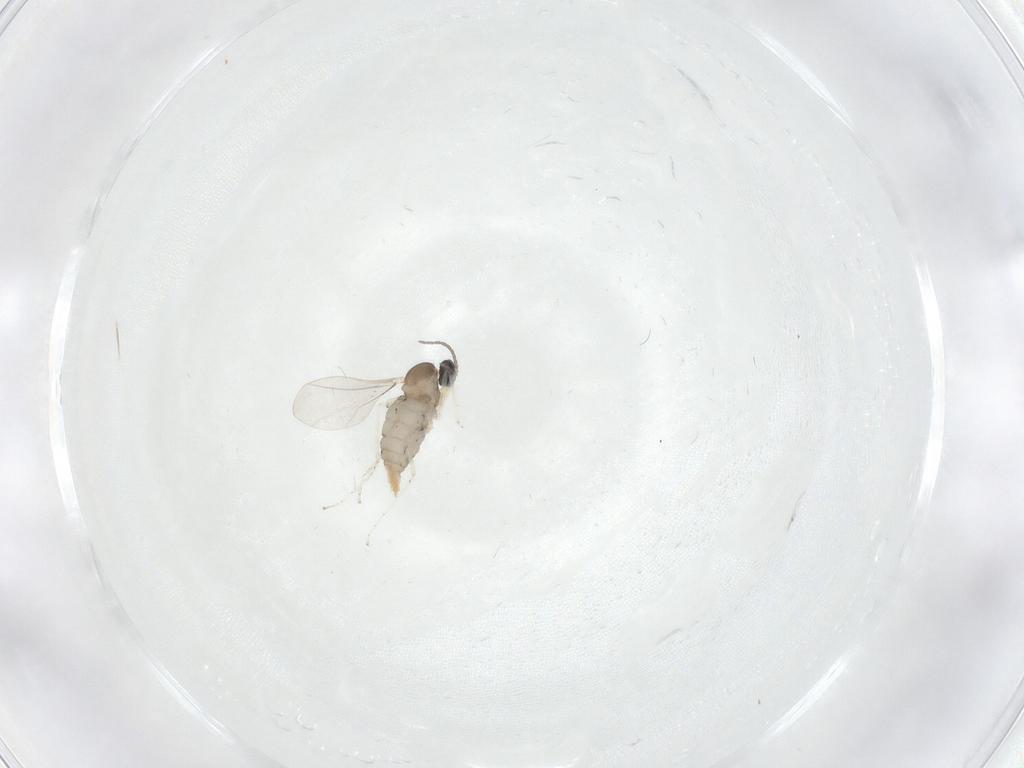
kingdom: Animalia
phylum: Arthropoda
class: Insecta
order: Diptera
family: Cecidomyiidae
